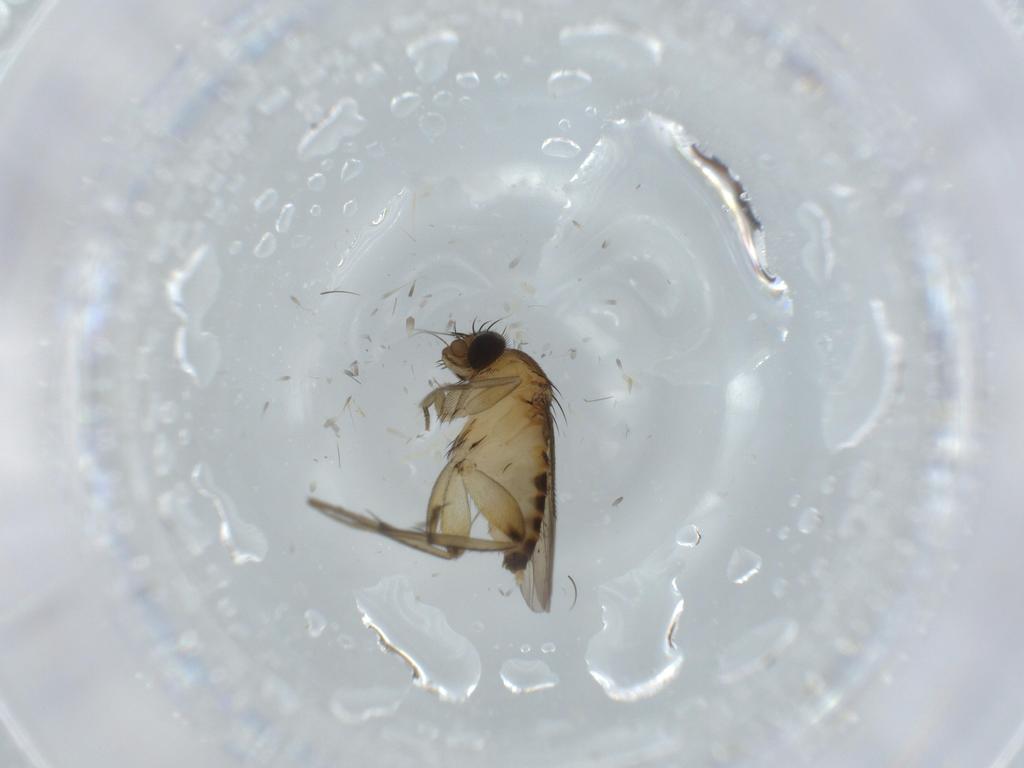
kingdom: Animalia
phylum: Arthropoda
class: Insecta
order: Diptera
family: Phoridae
